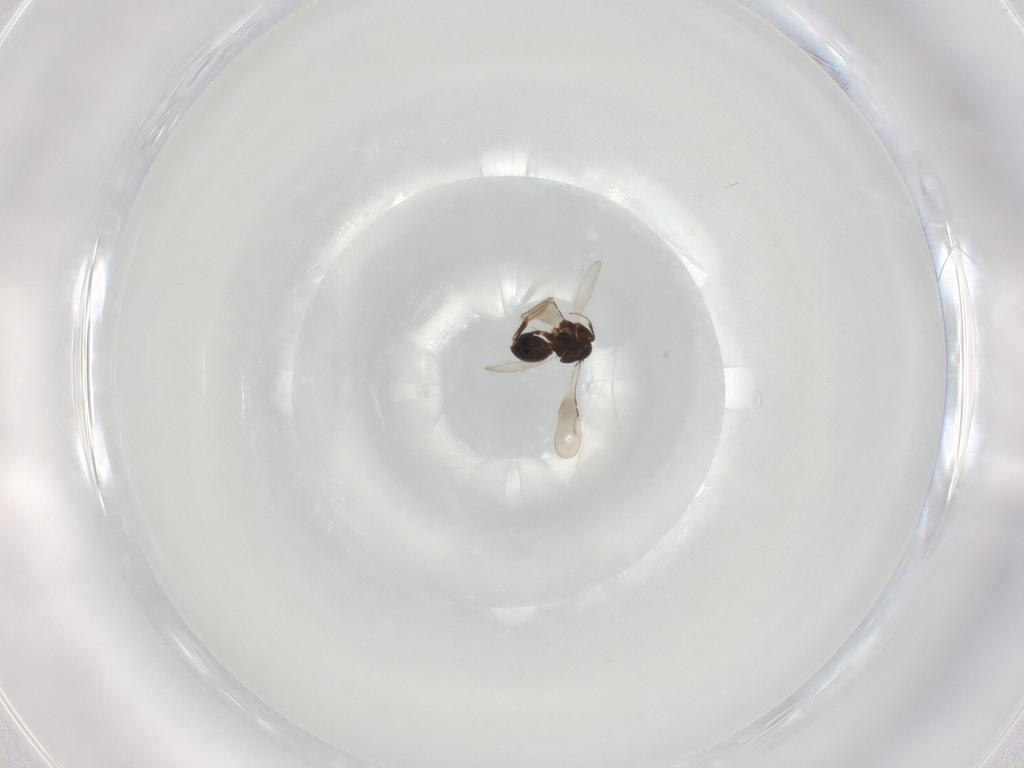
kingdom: Animalia
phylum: Arthropoda
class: Insecta
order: Hymenoptera
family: Ceraphronidae
